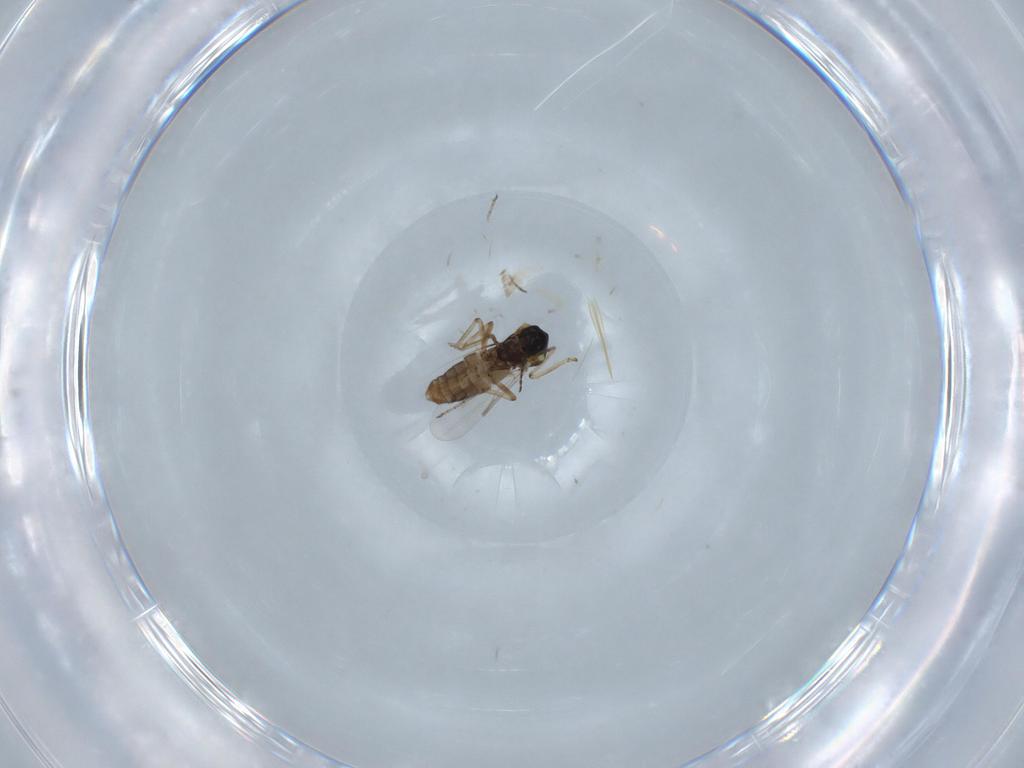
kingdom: Animalia
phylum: Arthropoda
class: Insecta
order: Diptera
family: Ceratopogonidae
